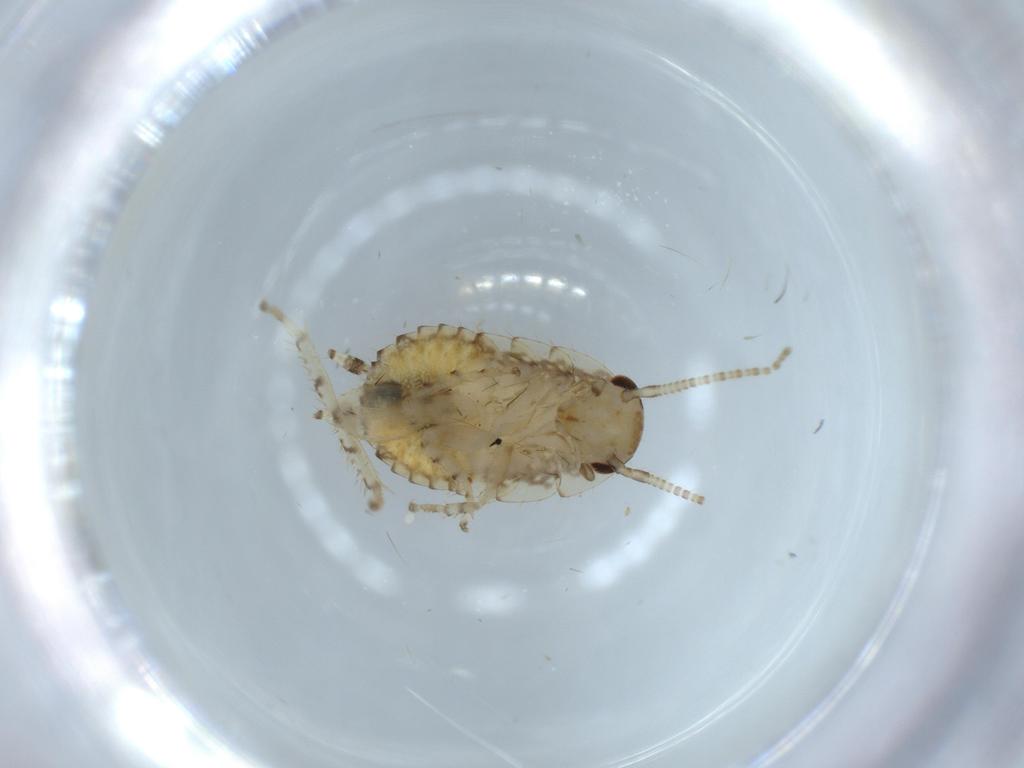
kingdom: Animalia
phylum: Arthropoda
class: Insecta
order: Blattodea
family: Ectobiidae
